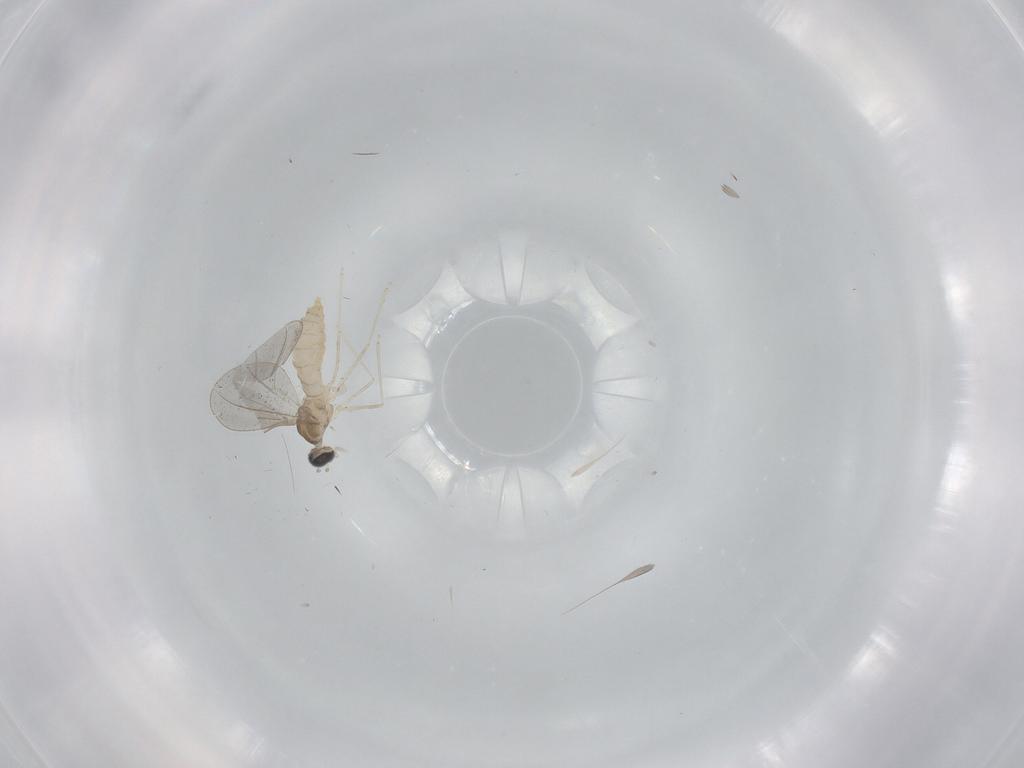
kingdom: Animalia
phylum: Arthropoda
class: Insecta
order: Diptera
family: Cecidomyiidae
